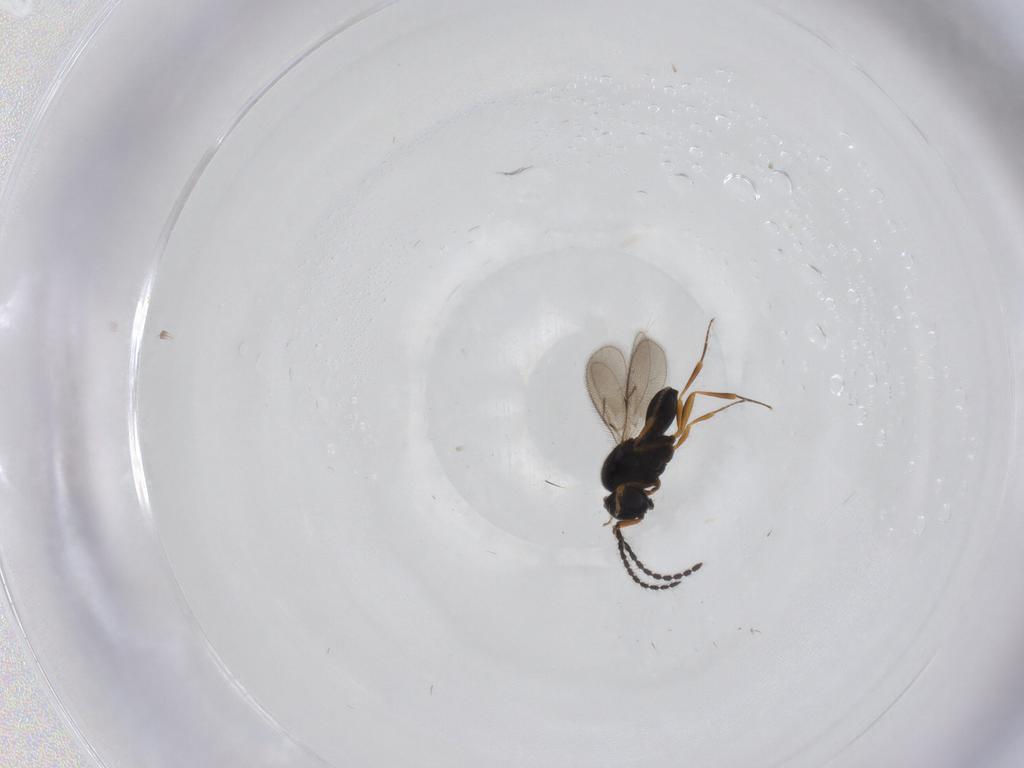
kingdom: Animalia
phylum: Arthropoda
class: Insecta
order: Hymenoptera
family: Scelionidae
